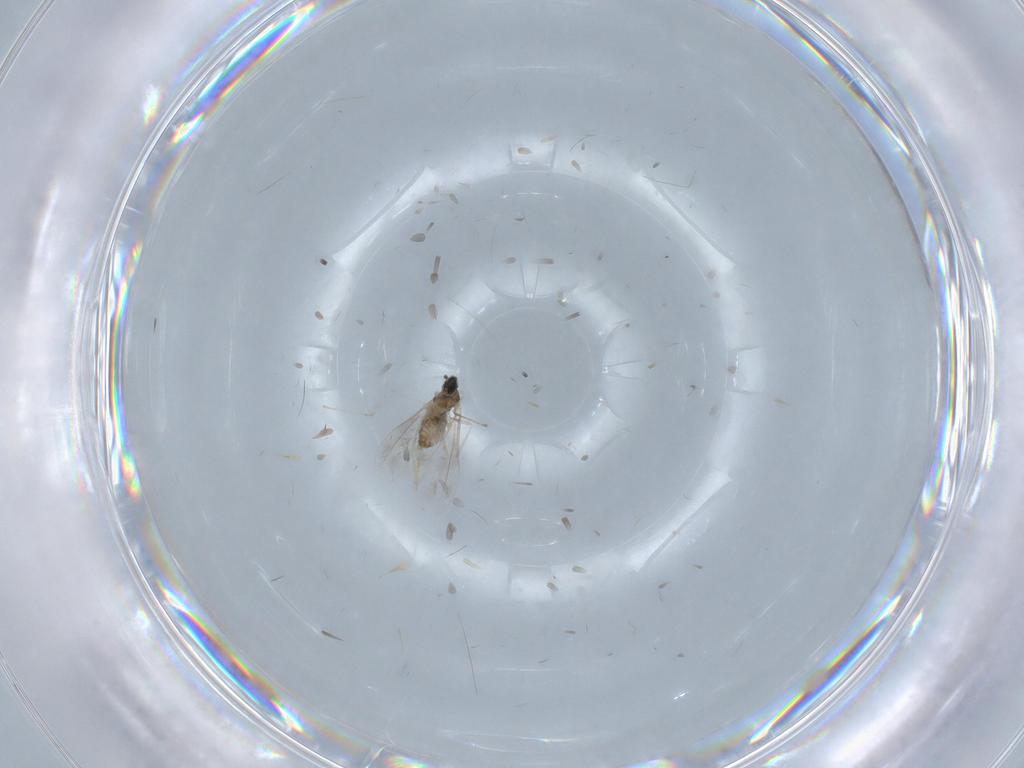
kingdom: Animalia
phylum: Arthropoda
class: Insecta
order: Diptera
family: Cecidomyiidae
